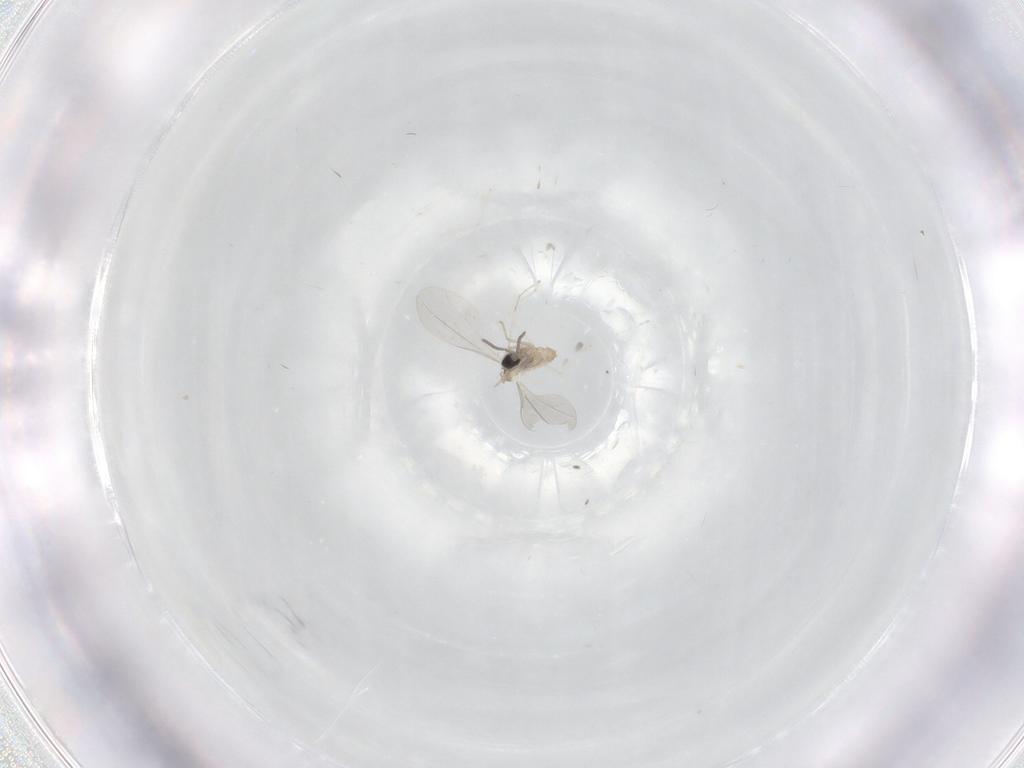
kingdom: Animalia
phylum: Arthropoda
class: Insecta
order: Diptera
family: Cecidomyiidae
